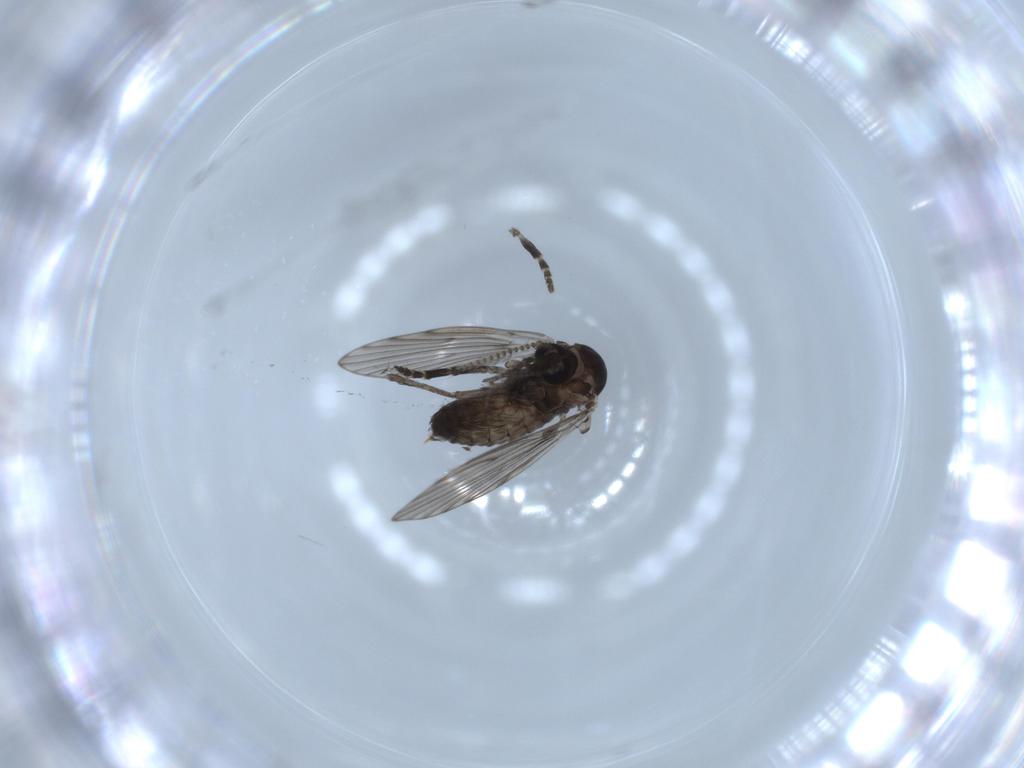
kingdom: Animalia
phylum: Arthropoda
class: Insecta
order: Diptera
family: Psychodidae
